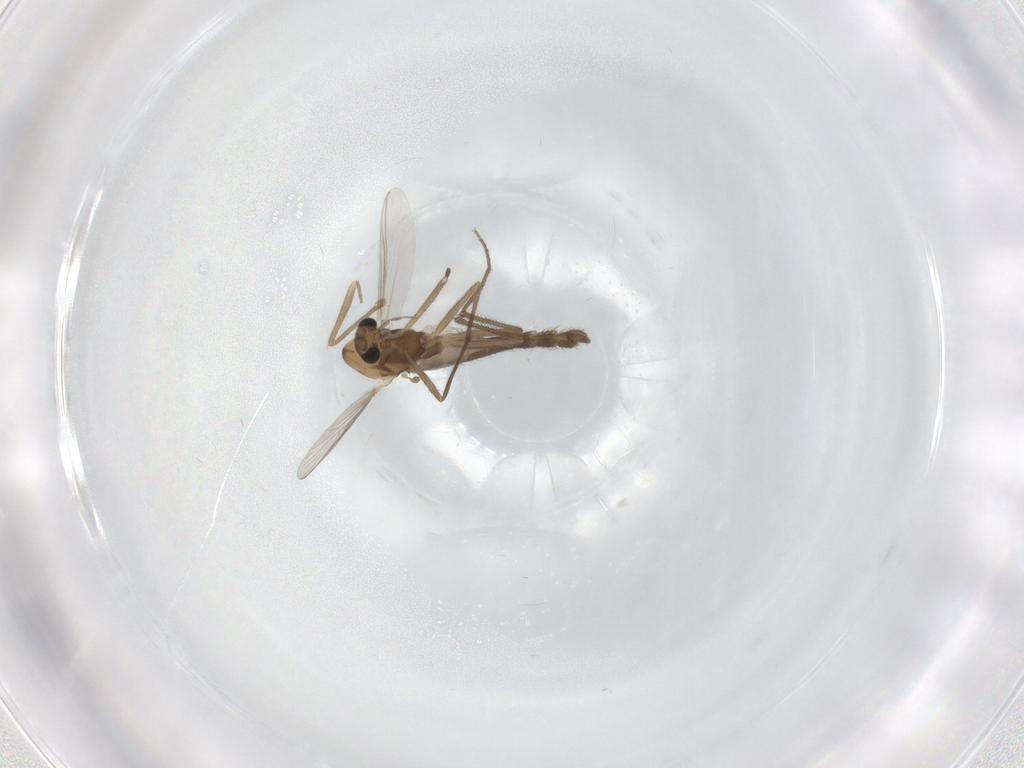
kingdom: Animalia
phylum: Arthropoda
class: Insecta
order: Diptera
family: Chironomidae
